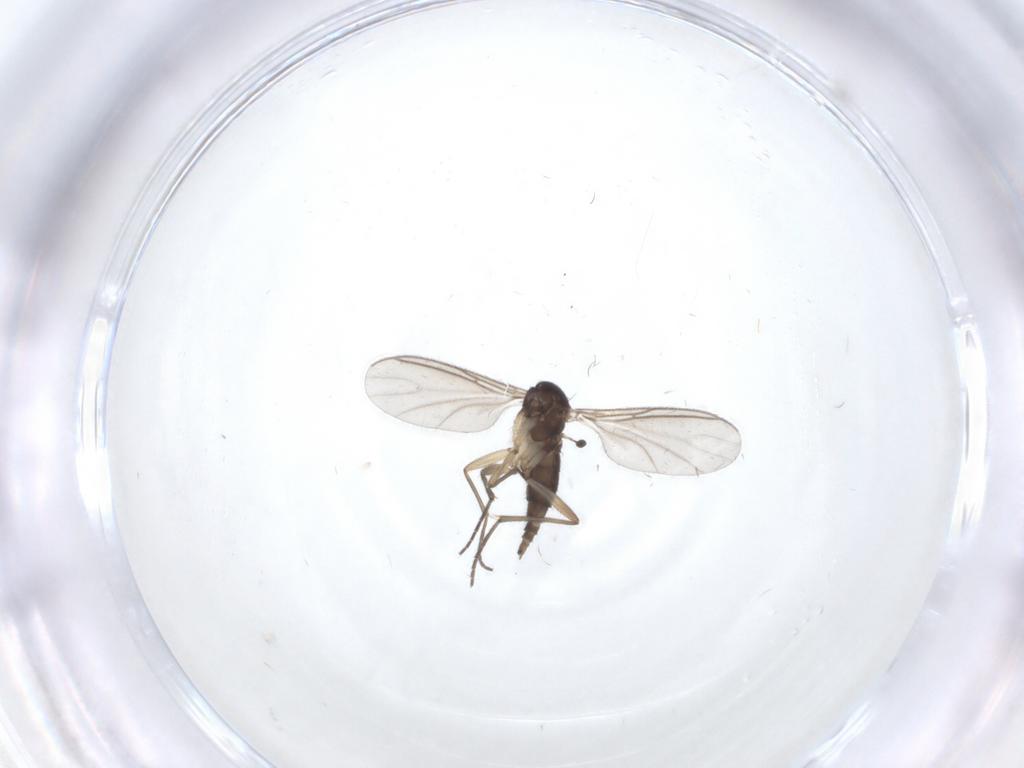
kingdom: Animalia
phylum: Arthropoda
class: Insecta
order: Diptera
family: Sciaridae
